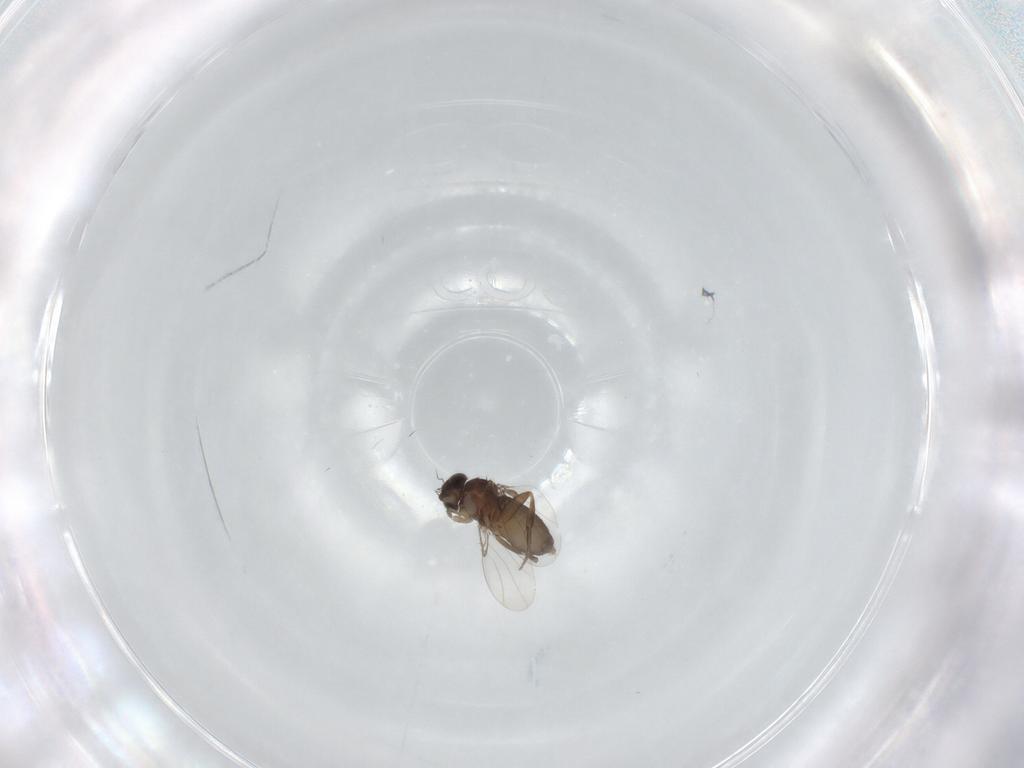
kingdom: Animalia
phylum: Arthropoda
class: Insecta
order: Diptera
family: Phoridae
